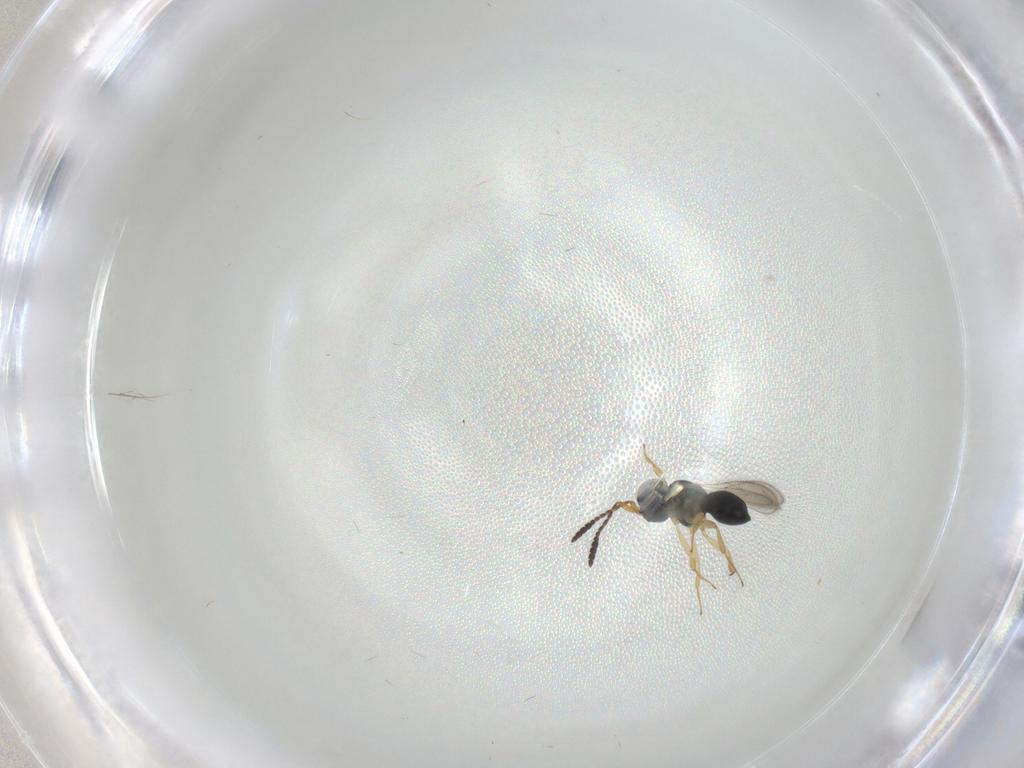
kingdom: Animalia
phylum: Arthropoda
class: Insecta
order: Hymenoptera
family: Scelionidae
